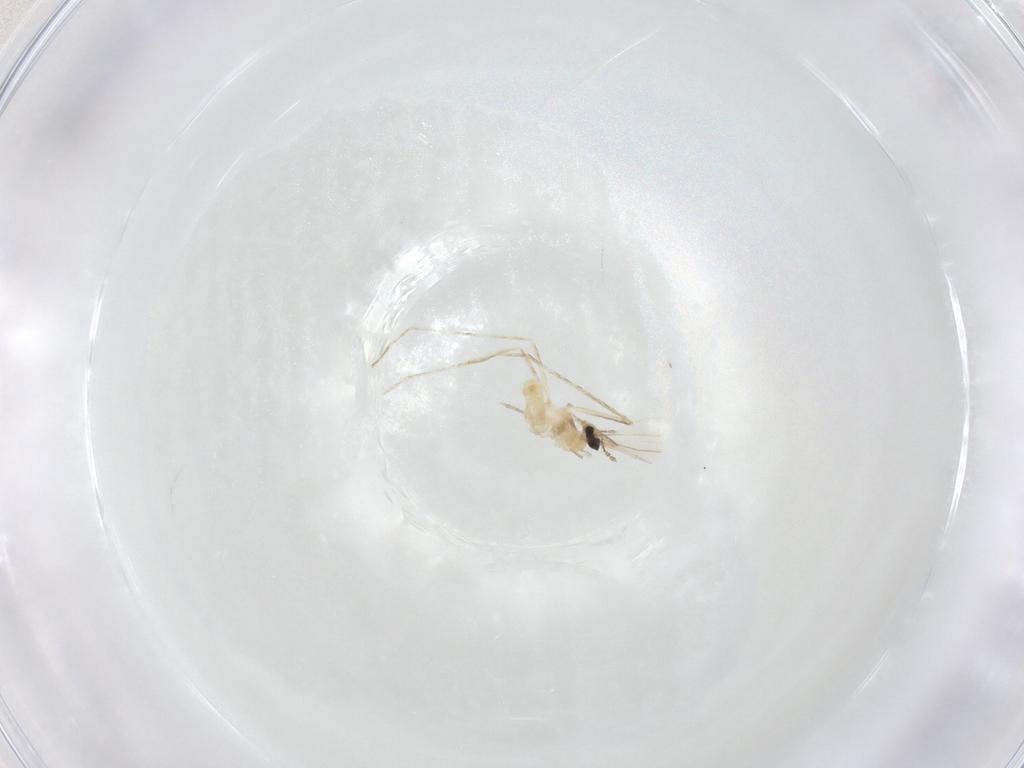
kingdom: Animalia
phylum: Arthropoda
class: Insecta
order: Diptera
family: Cecidomyiidae
